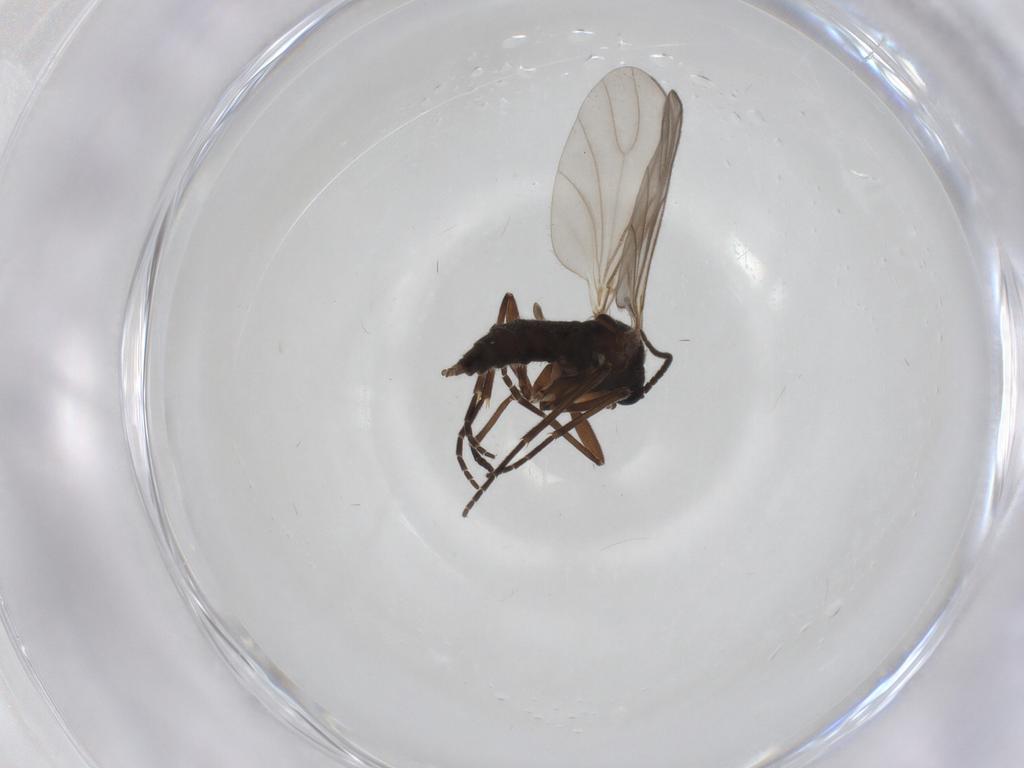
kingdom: Animalia
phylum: Arthropoda
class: Insecta
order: Diptera
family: Sciaridae
